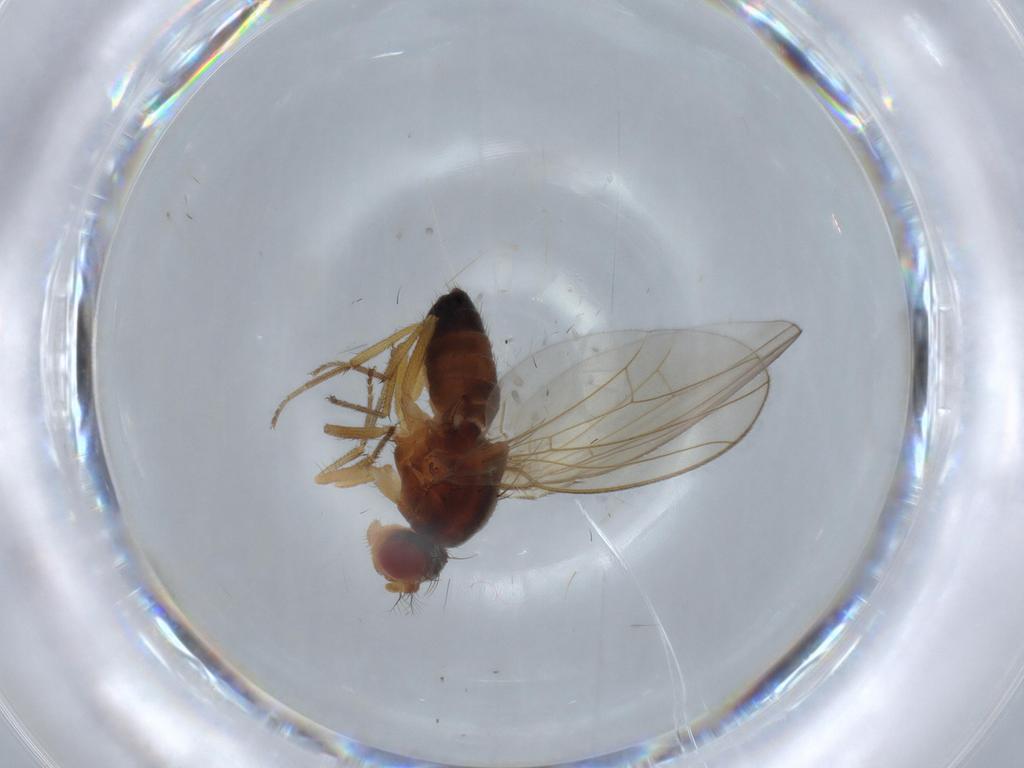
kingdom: Animalia
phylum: Arthropoda
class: Insecta
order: Diptera
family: Drosophilidae
